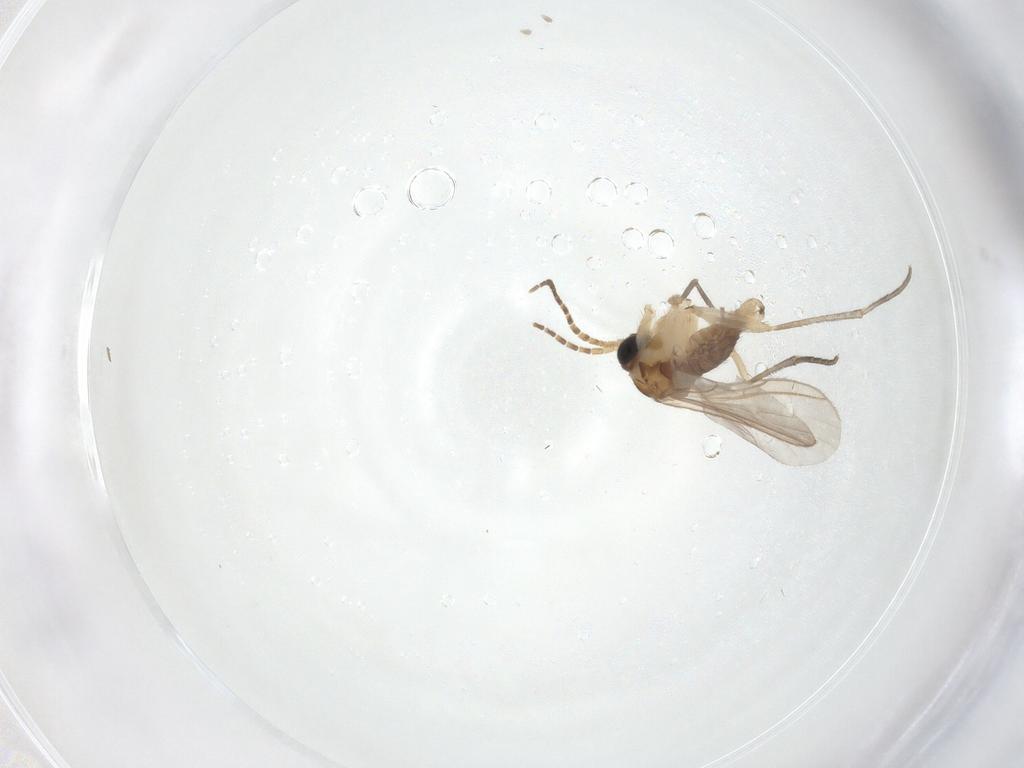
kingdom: Animalia
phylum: Arthropoda
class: Insecta
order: Diptera
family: Sciaridae
